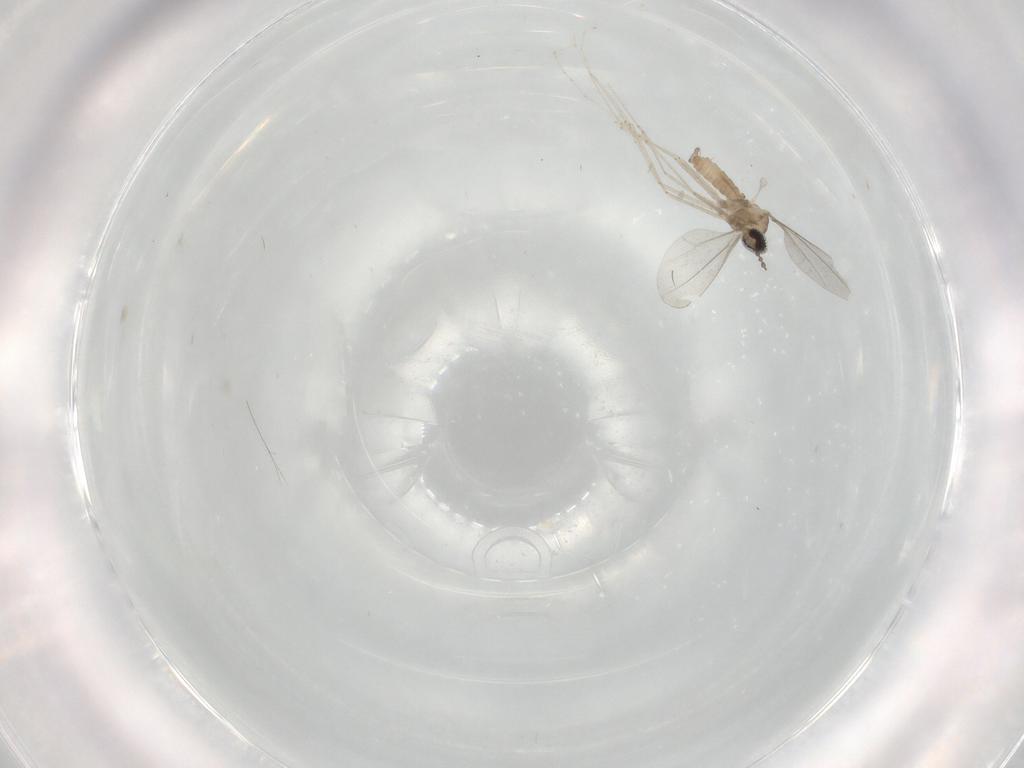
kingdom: Animalia
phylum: Arthropoda
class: Insecta
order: Diptera
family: Cecidomyiidae
